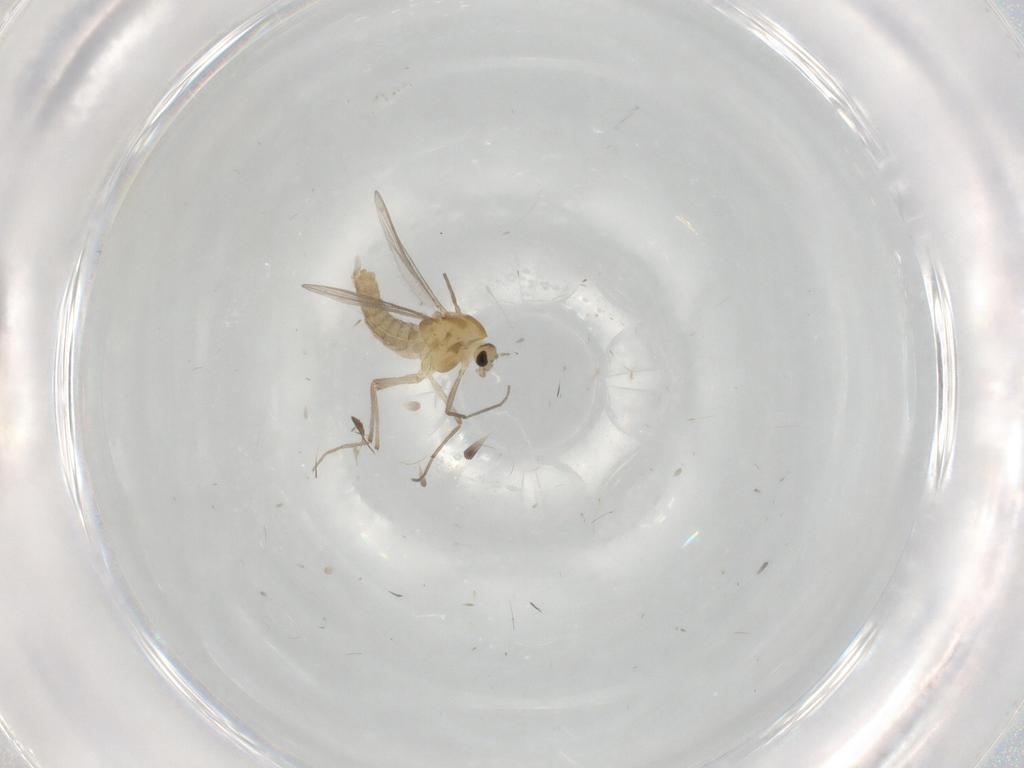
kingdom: Animalia
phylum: Arthropoda
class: Insecta
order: Diptera
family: Chironomidae
